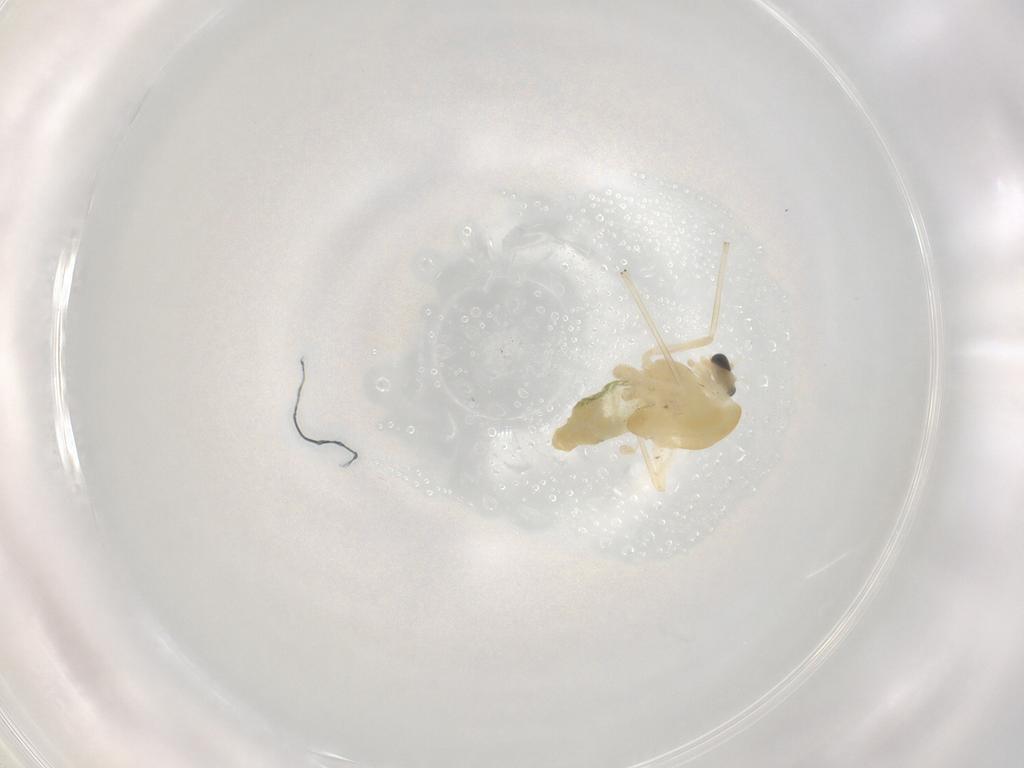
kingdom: Animalia
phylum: Arthropoda
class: Insecta
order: Diptera
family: Chironomidae
